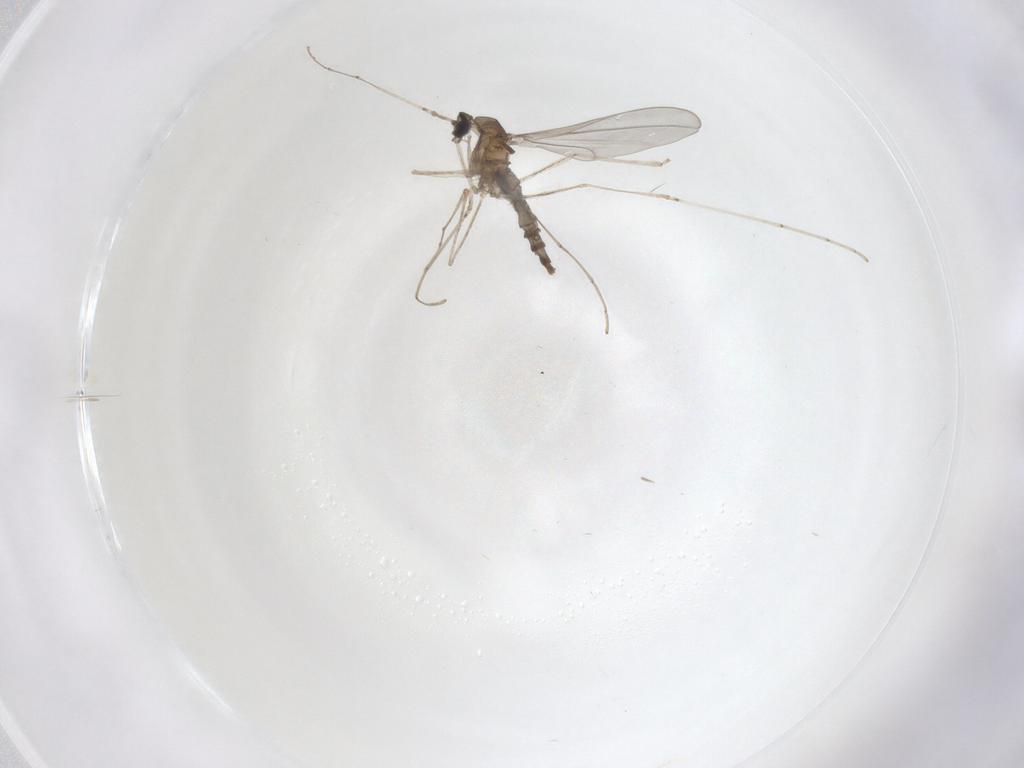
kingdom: Animalia
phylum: Arthropoda
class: Insecta
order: Diptera
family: Cecidomyiidae
